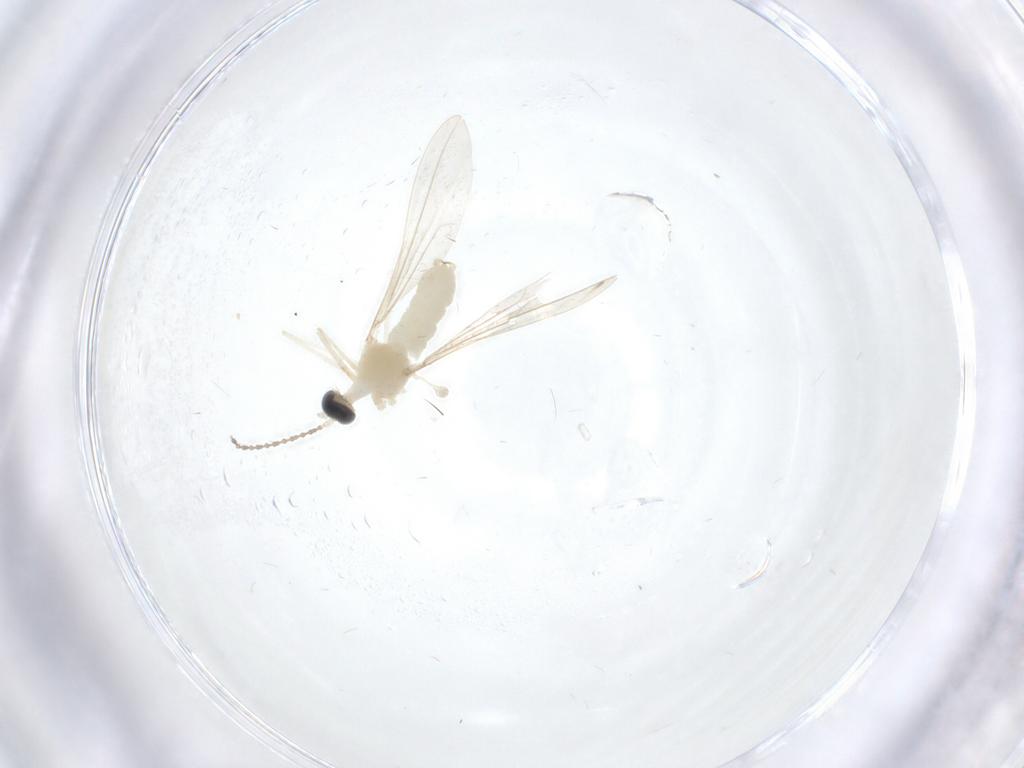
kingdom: Animalia
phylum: Arthropoda
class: Insecta
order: Diptera
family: Cecidomyiidae
